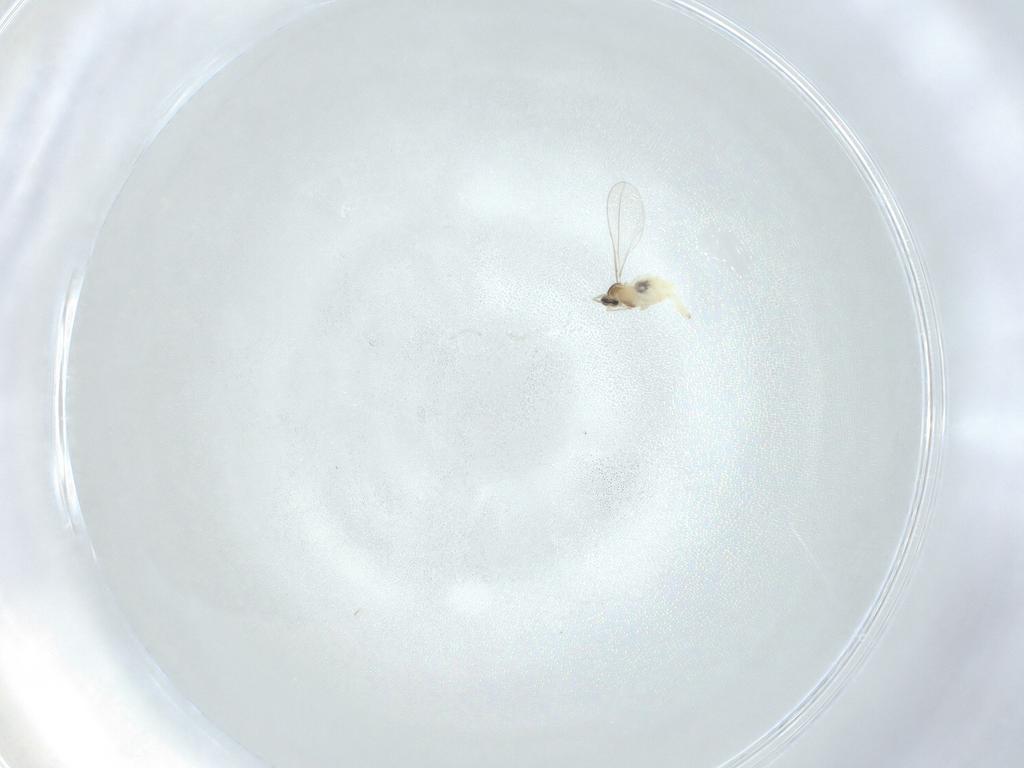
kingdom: Animalia
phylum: Arthropoda
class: Insecta
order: Diptera
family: Cecidomyiidae
